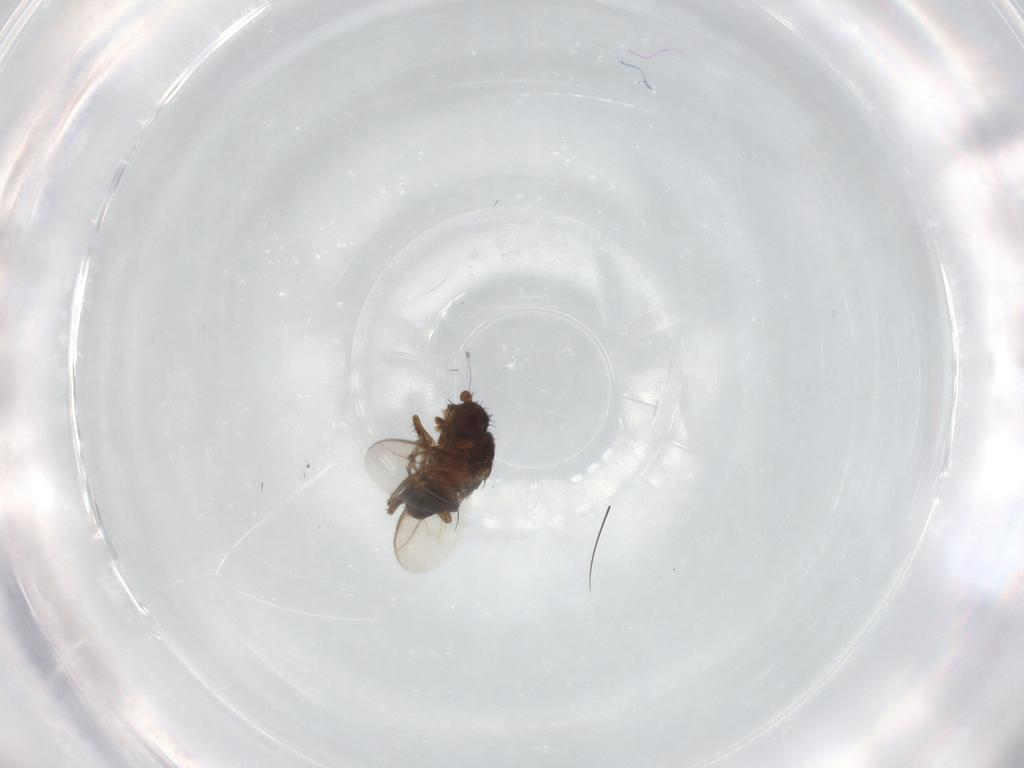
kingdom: Animalia
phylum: Arthropoda
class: Insecta
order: Diptera
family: Sphaeroceridae
